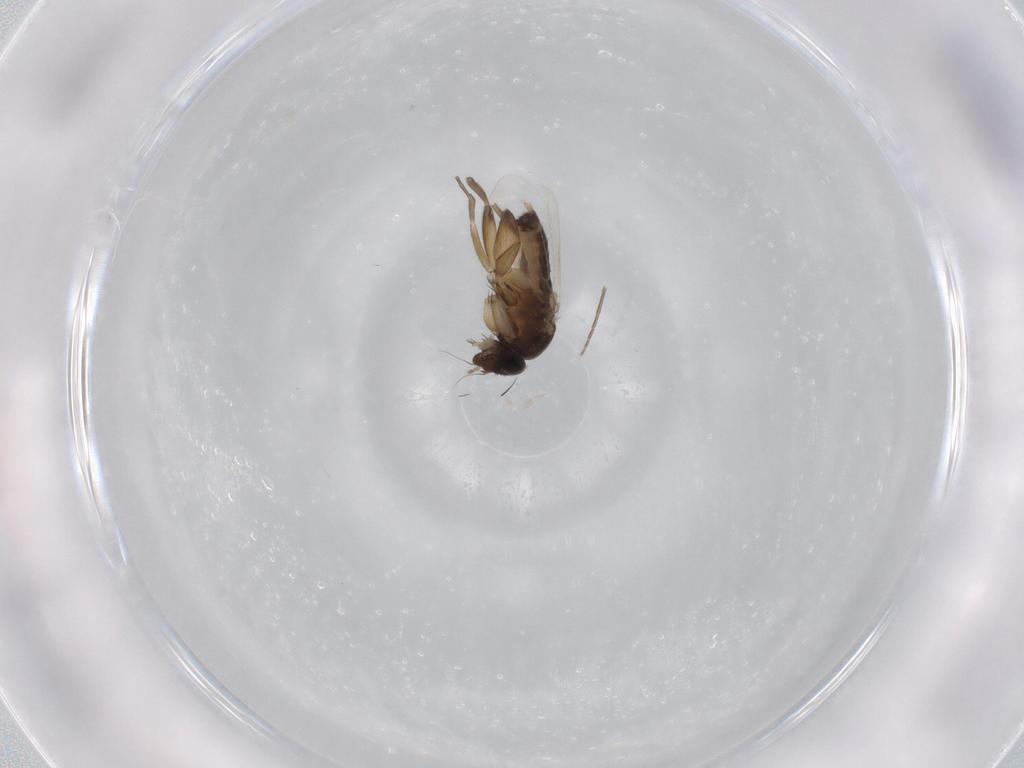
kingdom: Animalia
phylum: Arthropoda
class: Insecta
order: Diptera
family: Phoridae
